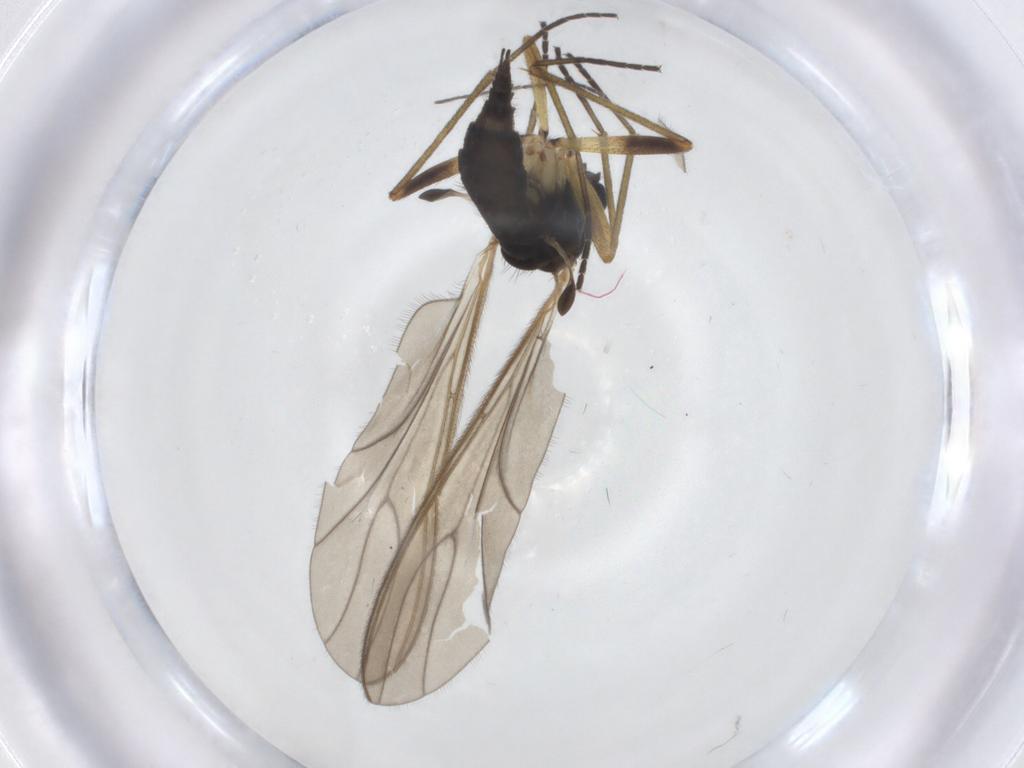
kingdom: Animalia
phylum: Arthropoda
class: Insecta
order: Diptera
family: Sciaridae
